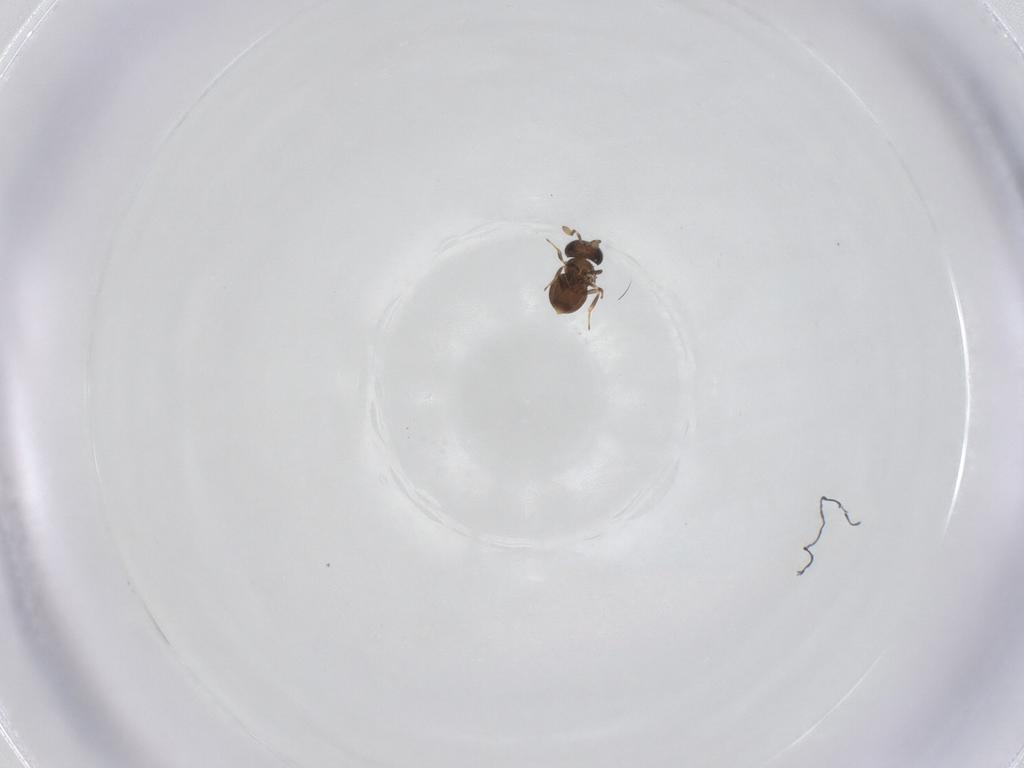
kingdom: Animalia
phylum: Arthropoda
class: Insecta
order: Hymenoptera
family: Scelionidae
